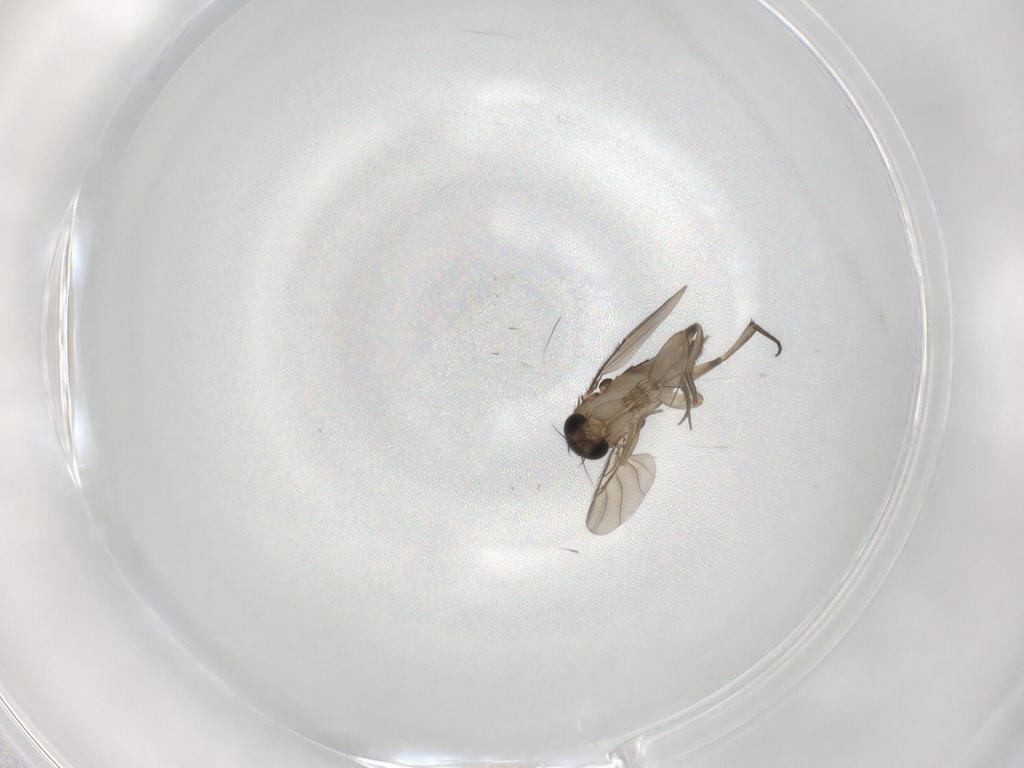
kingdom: Animalia
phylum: Arthropoda
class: Insecta
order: Diptera
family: Phoridae
